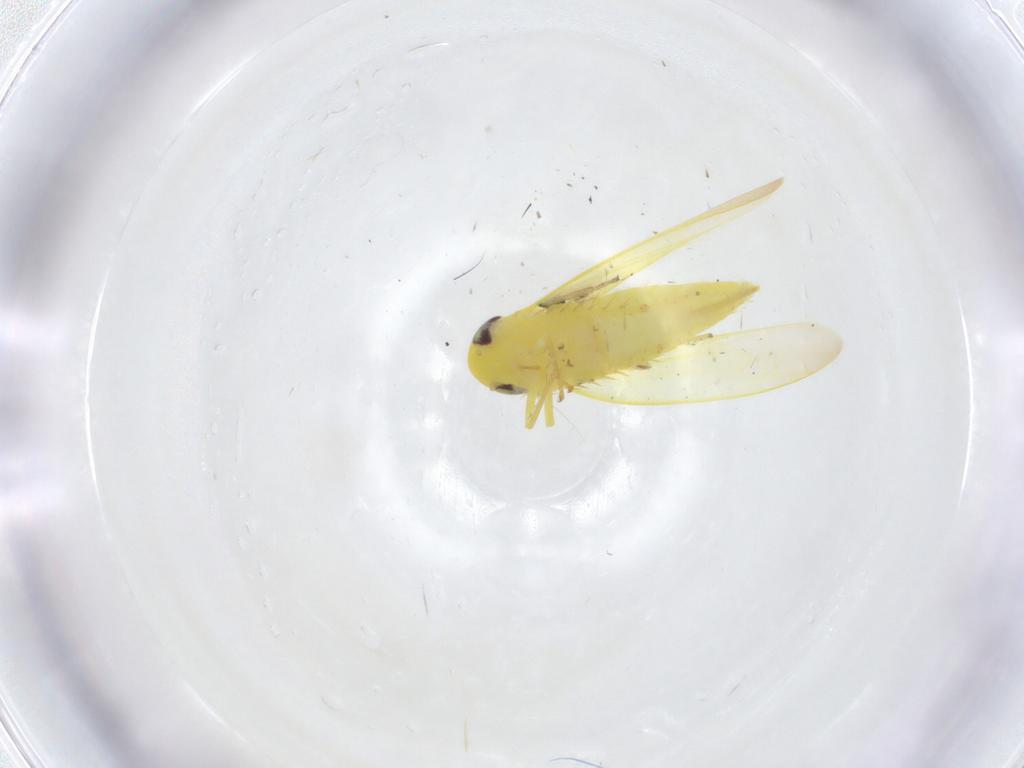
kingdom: Animalia
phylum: Arthropoda
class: Insecta
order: Hemiptera
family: Cicadellidae
